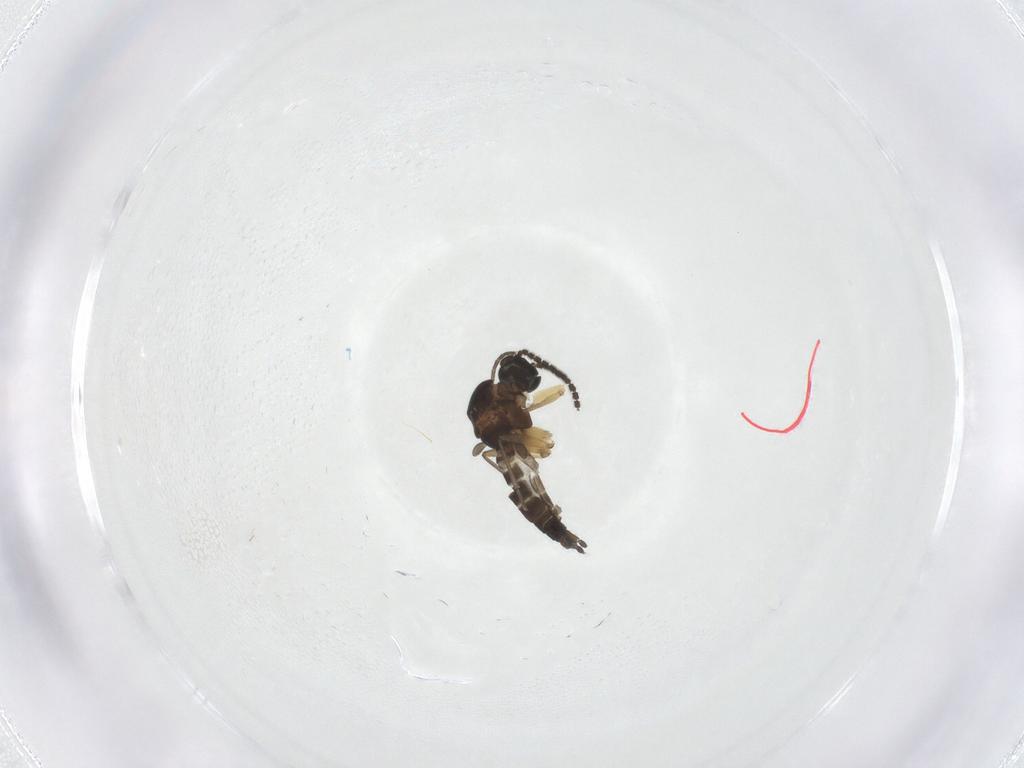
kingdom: Animalia
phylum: Arthropoda
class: Insecta
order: Diptera
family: Sciaridae
